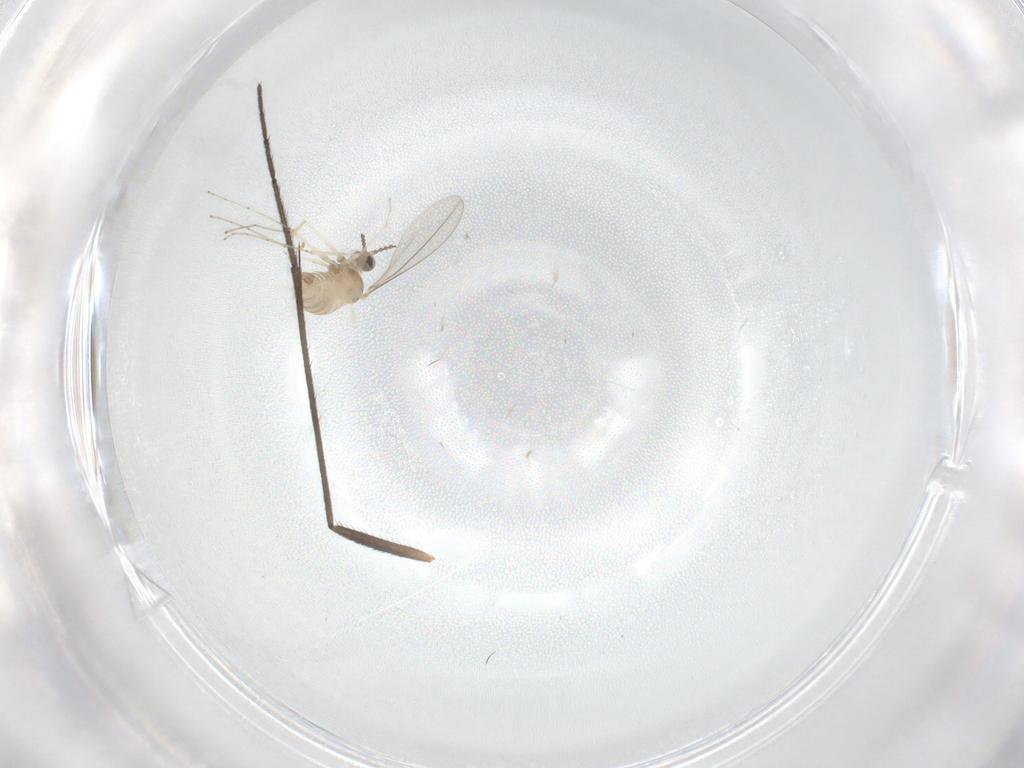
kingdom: Animalia
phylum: Arthropoda
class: Insecta
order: Diptera
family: Cecidomyiidae
